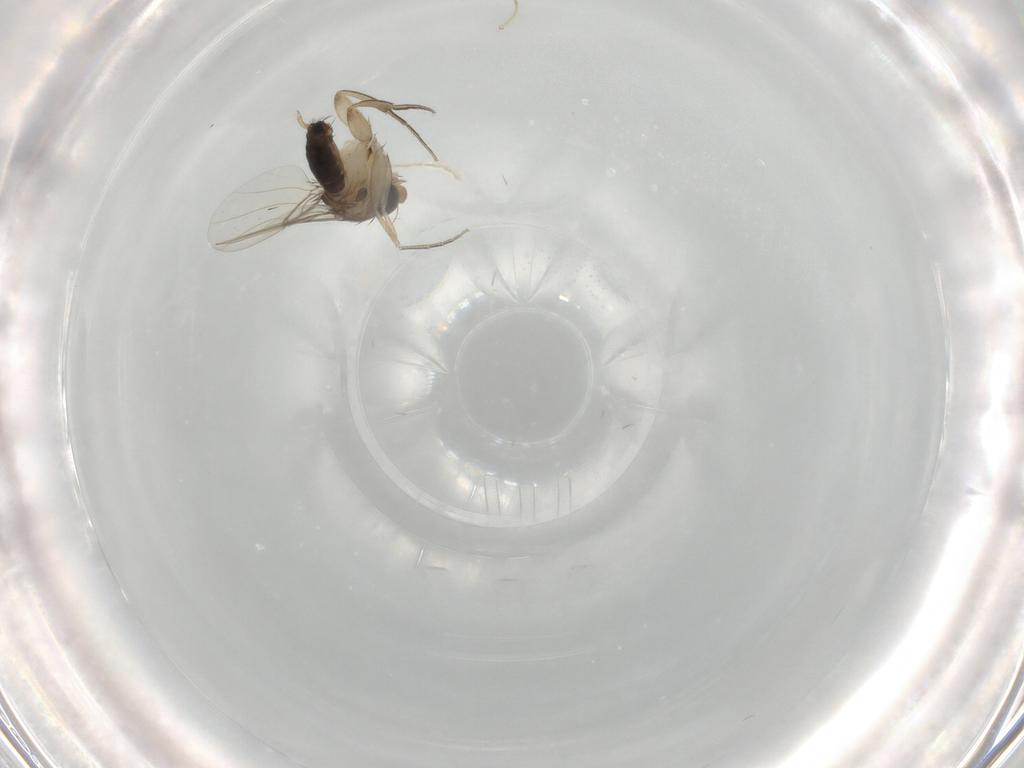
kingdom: Animalia
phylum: Arthropoda
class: Insecta
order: Diptera
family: Phoridae
